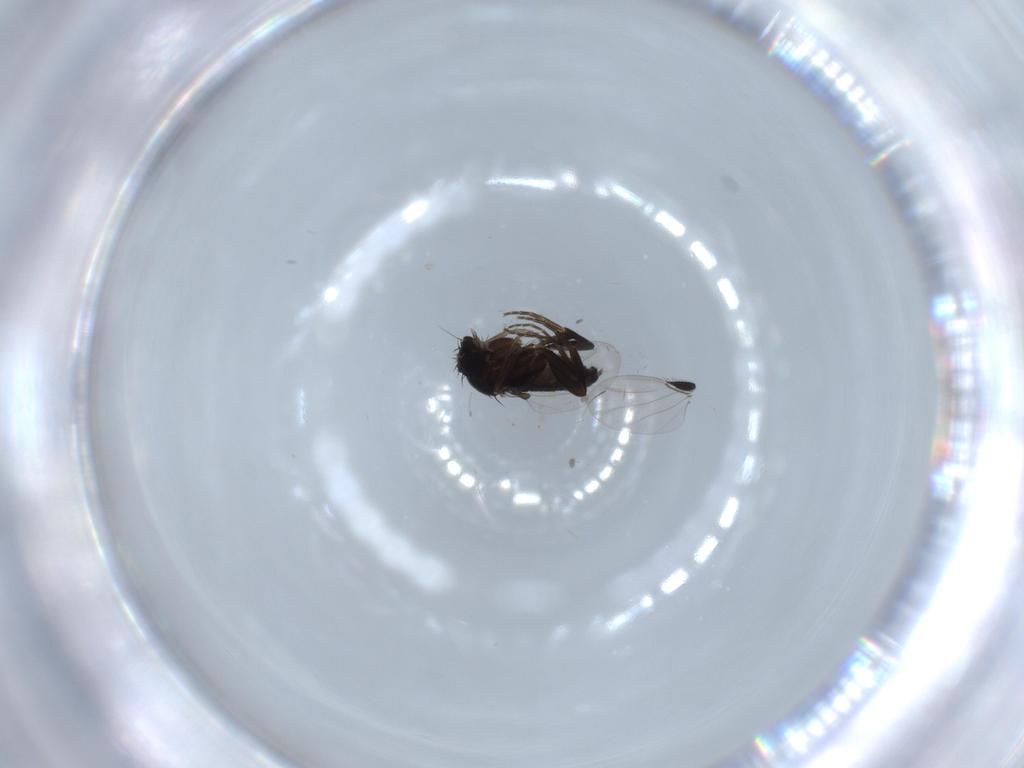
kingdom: Animalia
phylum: Arthropoda
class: Insecta
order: Diptera
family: Phoridae
